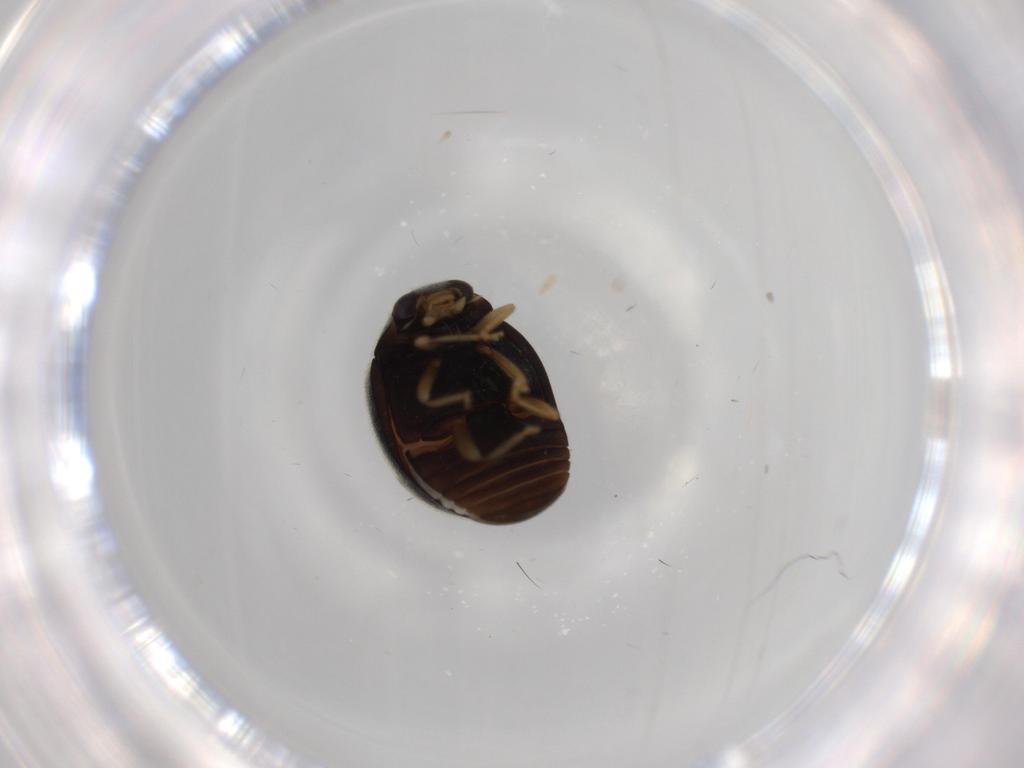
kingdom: Animalia
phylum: Arthropoda
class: Insecta
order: Coleoptera
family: Coccinellidae
